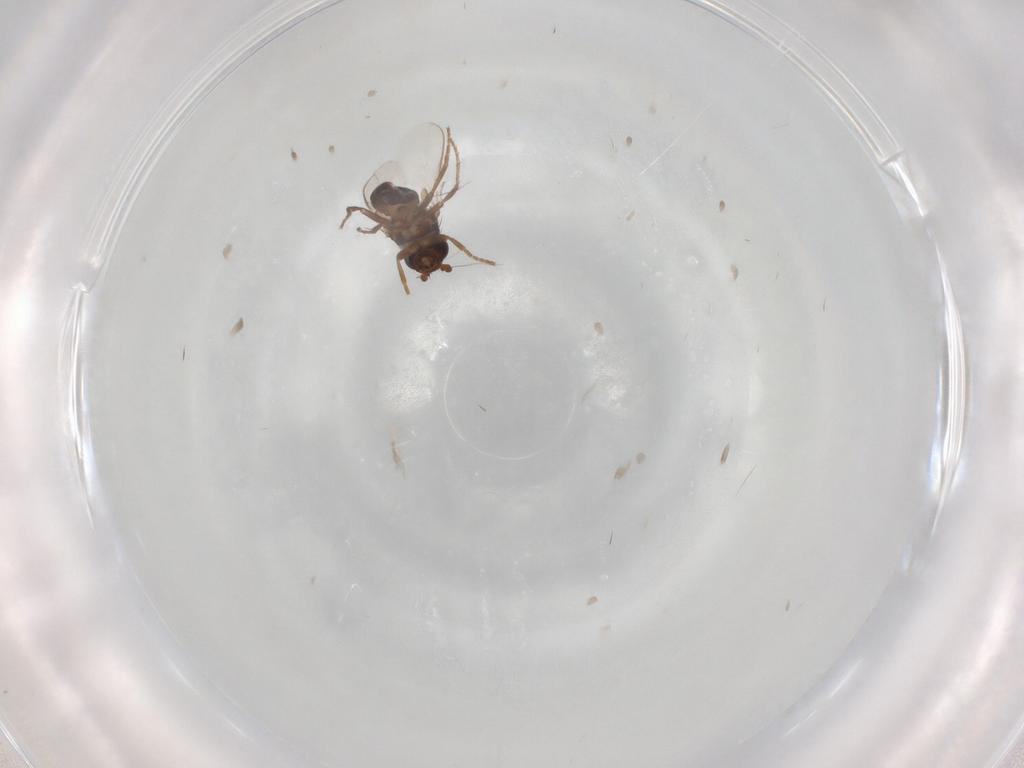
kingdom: Animalia
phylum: Arthropoda
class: Insecta
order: Diptera
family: Sphaeroceridae
